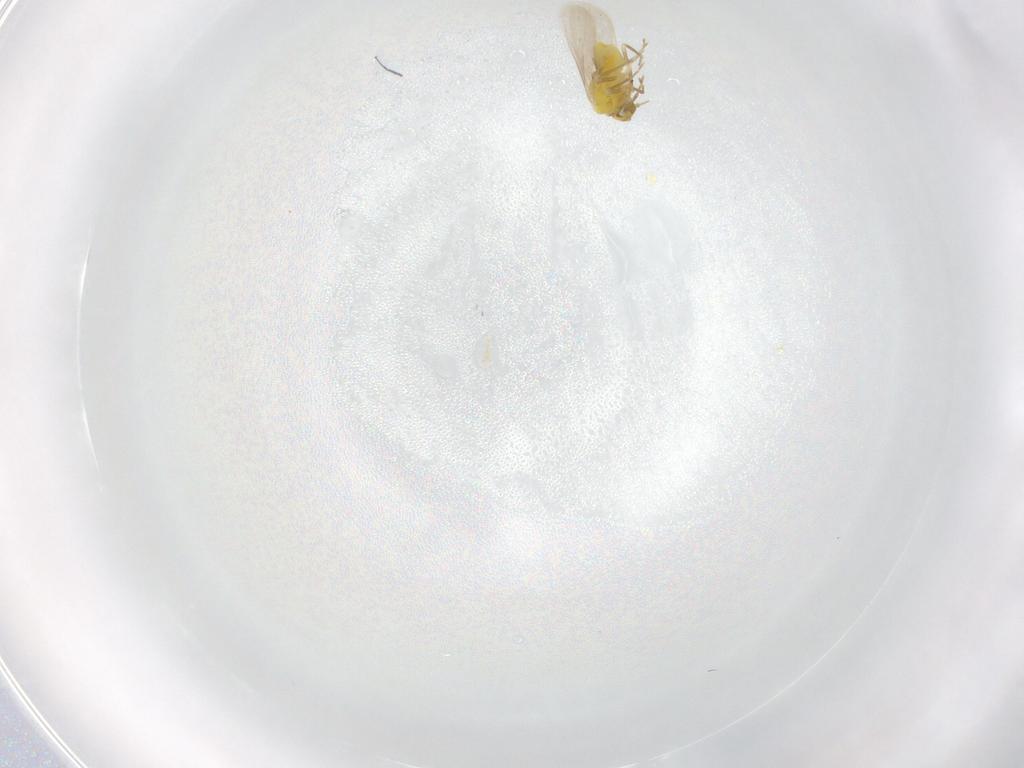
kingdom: Animalia
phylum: Arthropoda
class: Insecta
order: Hemiptera
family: Aleyrodidae
